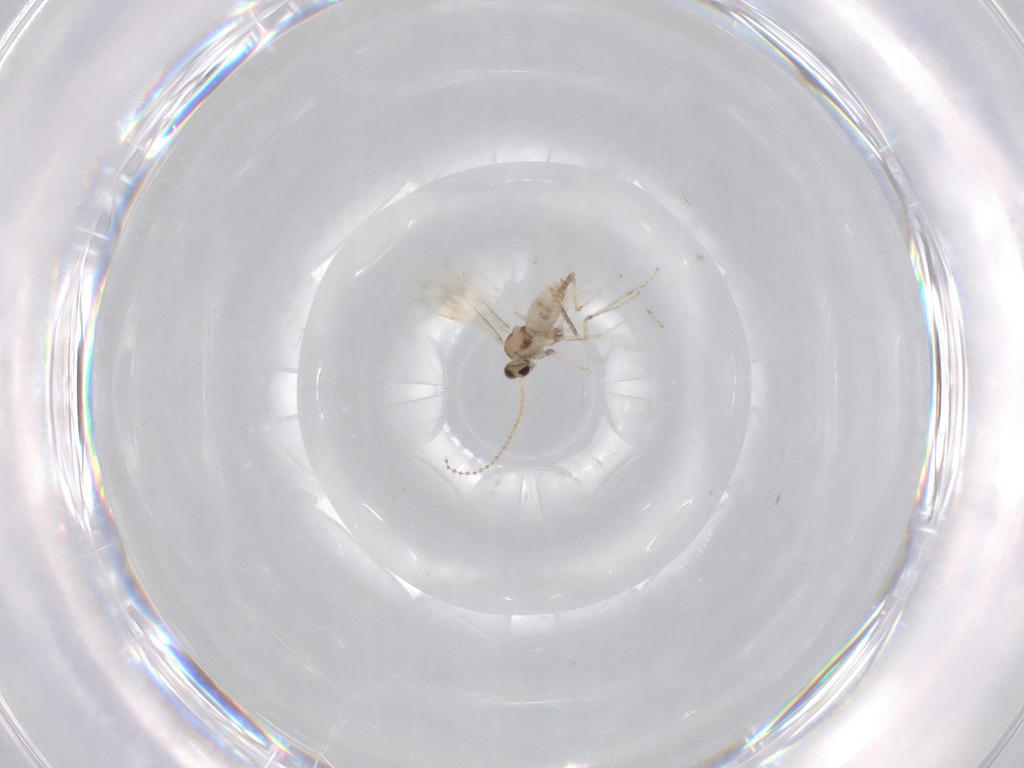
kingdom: Animalia
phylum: Arthropoda
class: Insecta
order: Diptera
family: Cecidomyiidae
